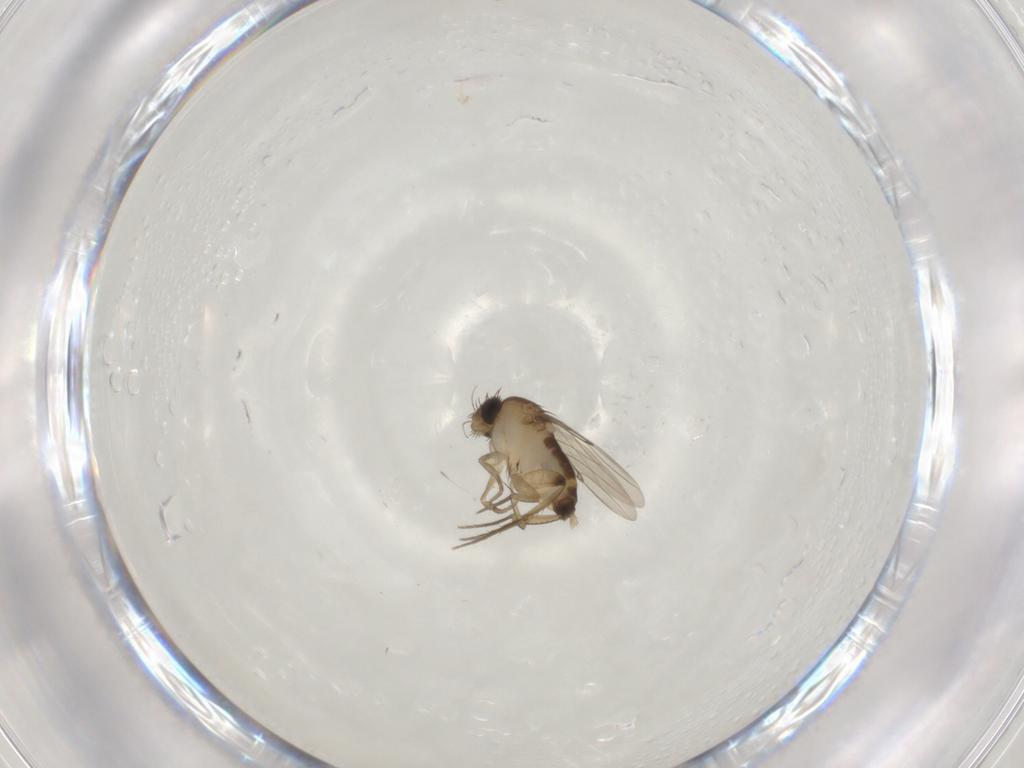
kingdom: Animalia
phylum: Arthropoda
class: Insecta
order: Diptera
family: Phoridae
